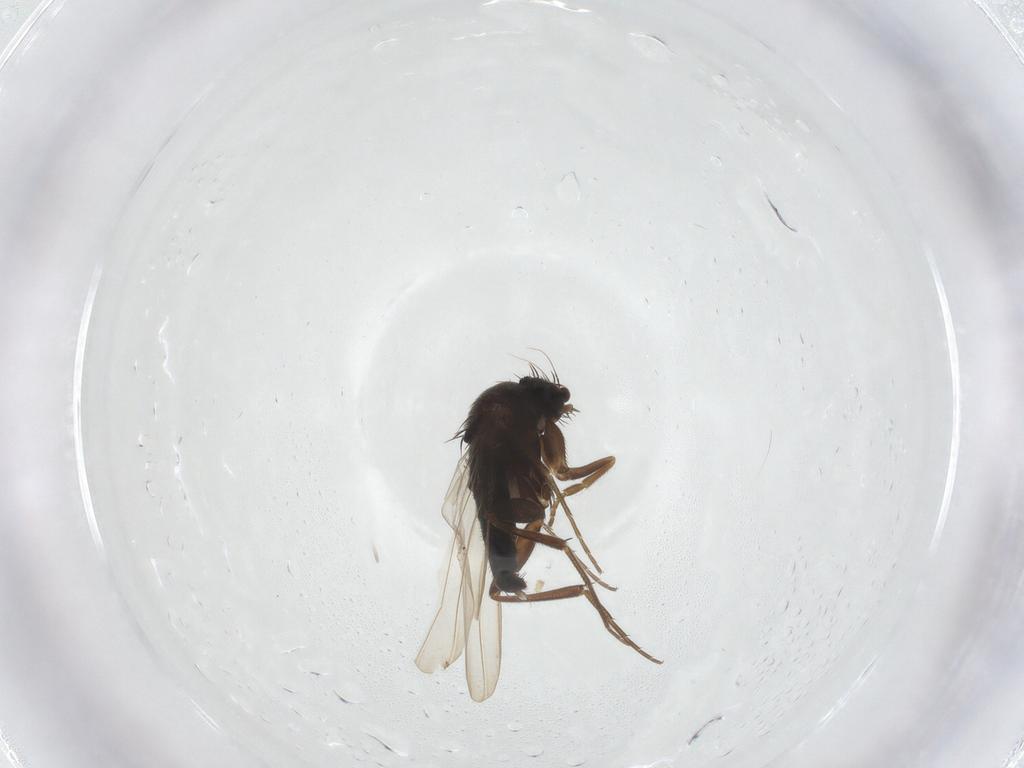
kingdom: Animalia
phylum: Arthropoda
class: Insecta
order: Diptera
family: Phoridae
